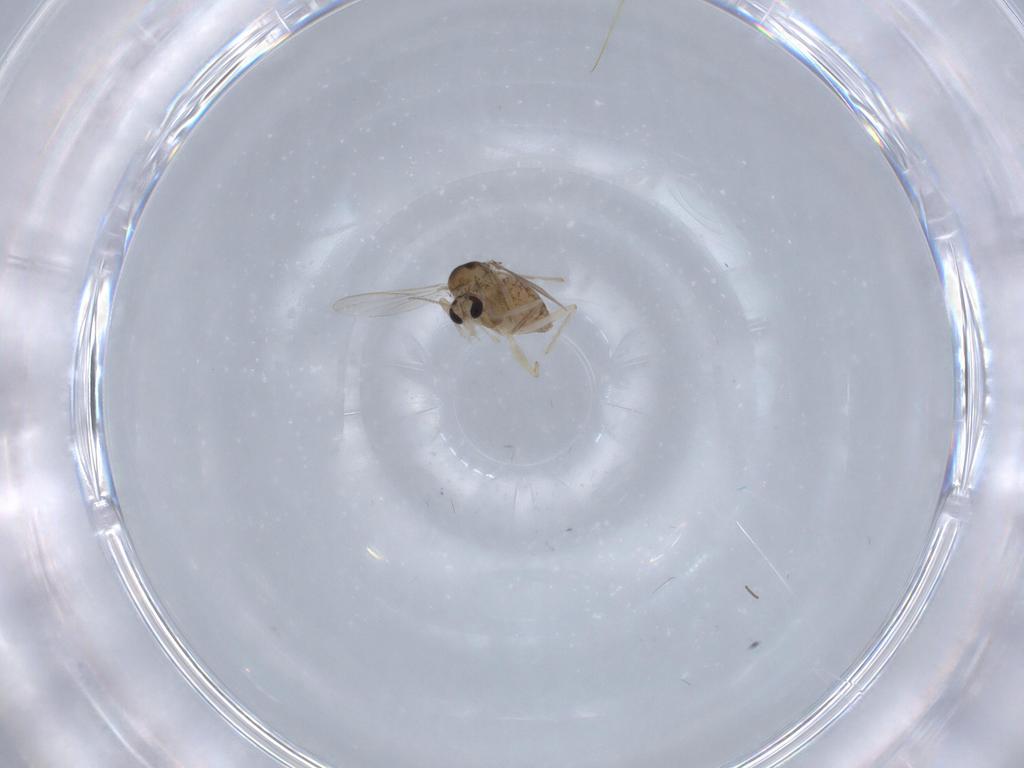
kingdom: Animalia
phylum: Arthropoda
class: Insecta
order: Diptera
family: Chironomidae
